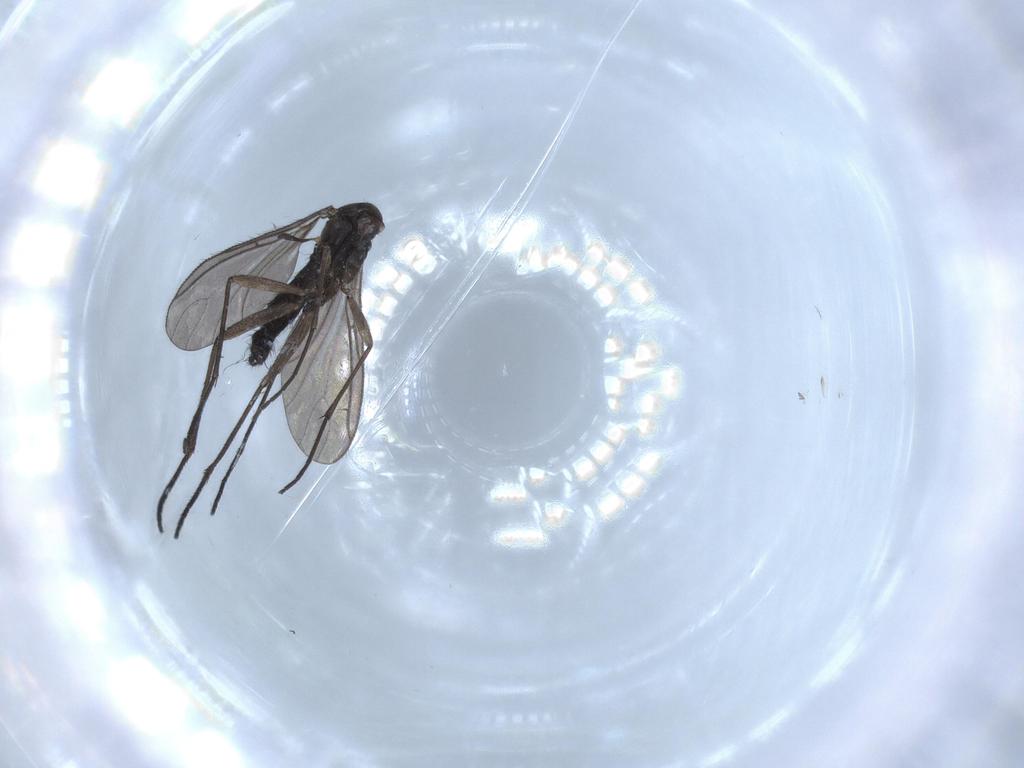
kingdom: Animalia
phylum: Arthropoda
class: Insecta
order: Diptera
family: Sciaridae
